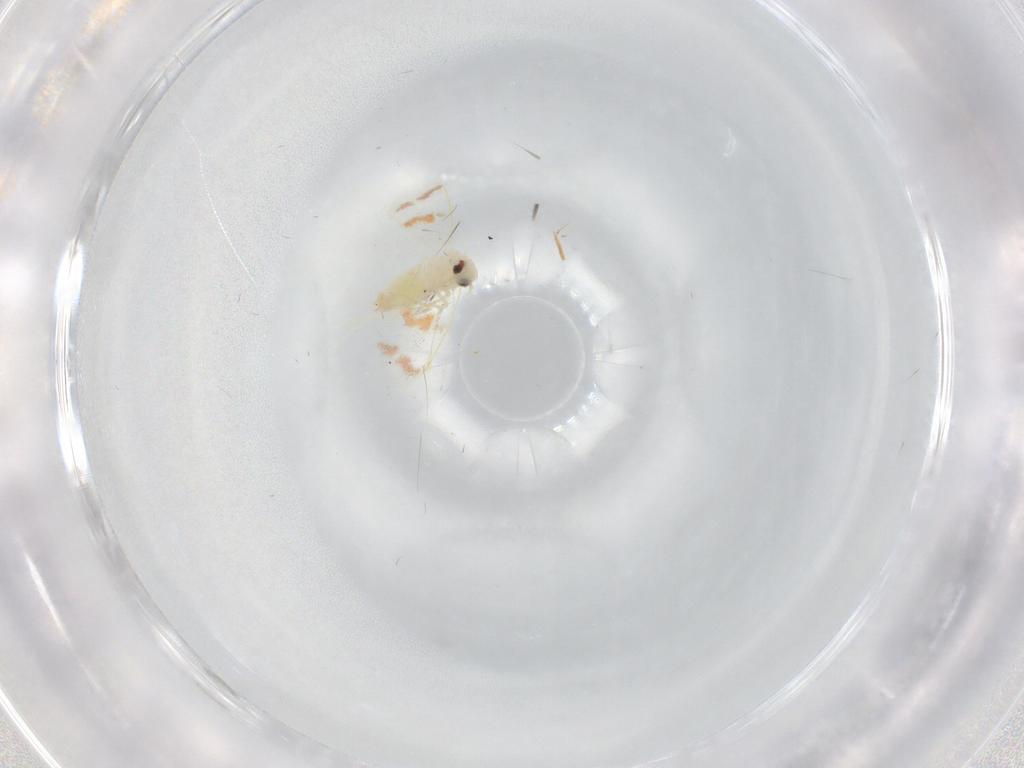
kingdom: Animalia
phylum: Arthropoda
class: Insecta
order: Hemiptera
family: Aleyrodidae
